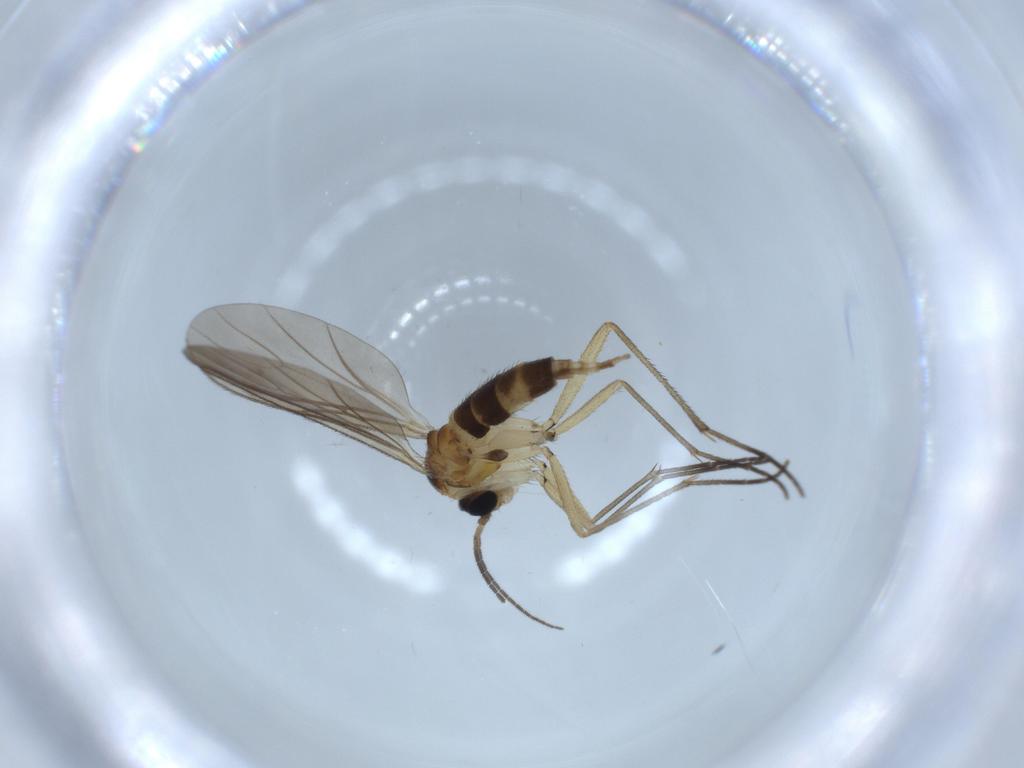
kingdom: Animalia
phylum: Arthropoda
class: Insecta
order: Diptera
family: Sciaridae
